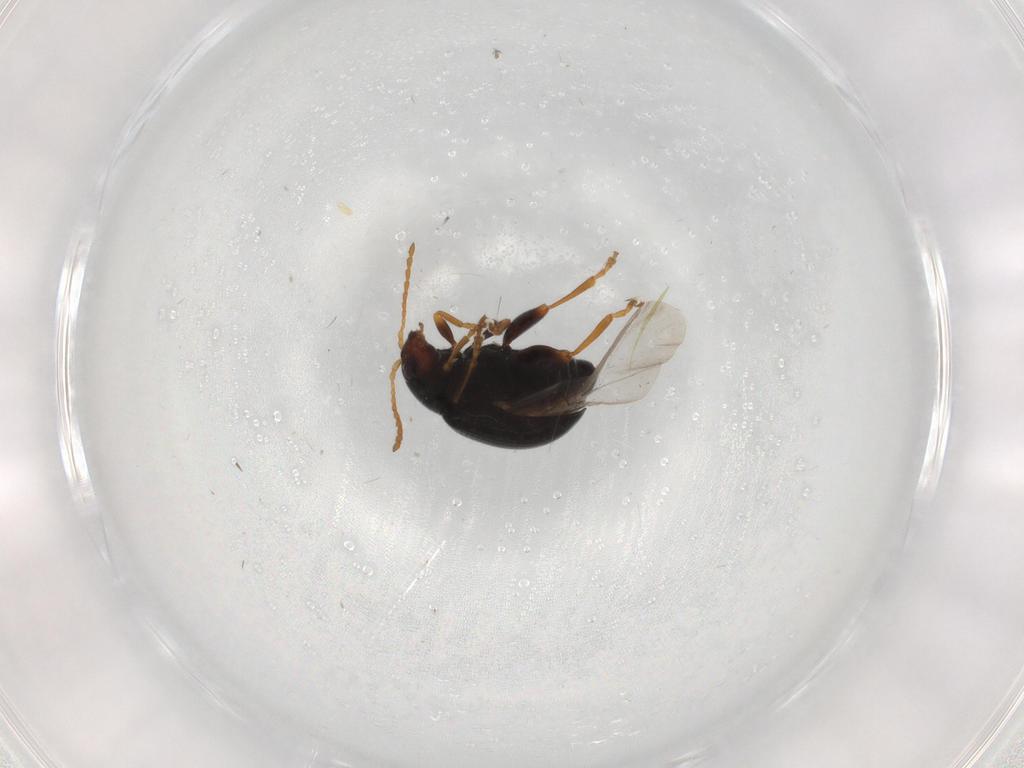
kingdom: Animalia
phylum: Arthropoda
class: Insecta
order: Coleoptera
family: Chrysomelidae
